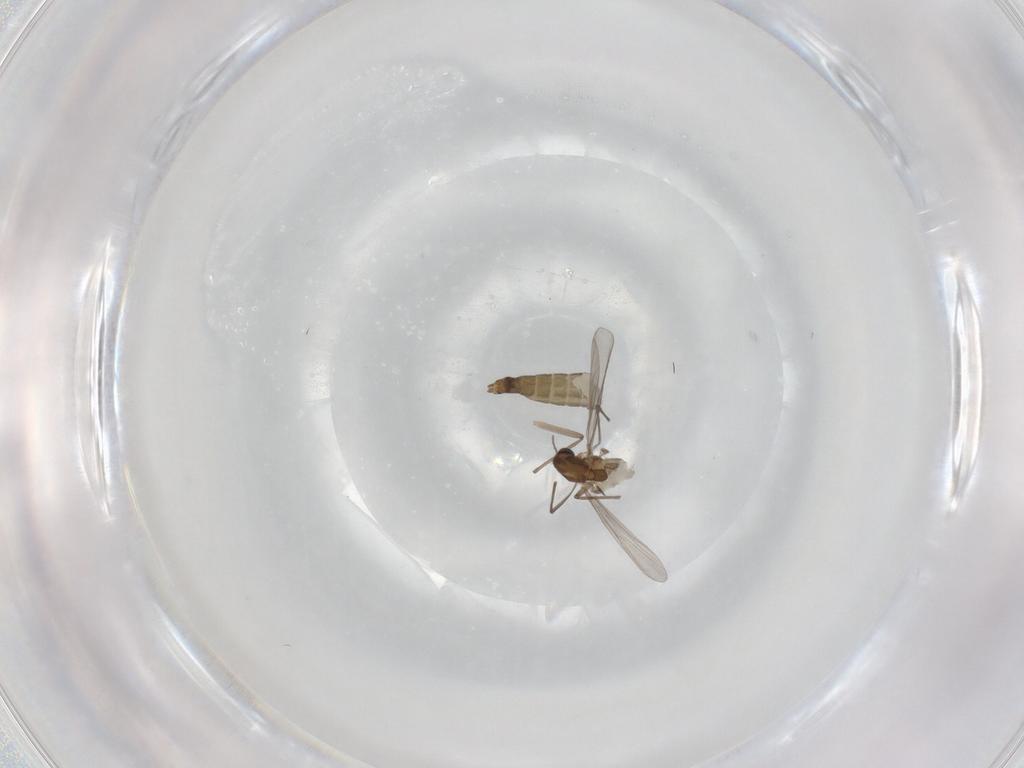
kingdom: Animalia
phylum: Arthropoda
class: Insecta
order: Diptera
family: Chironomidae
